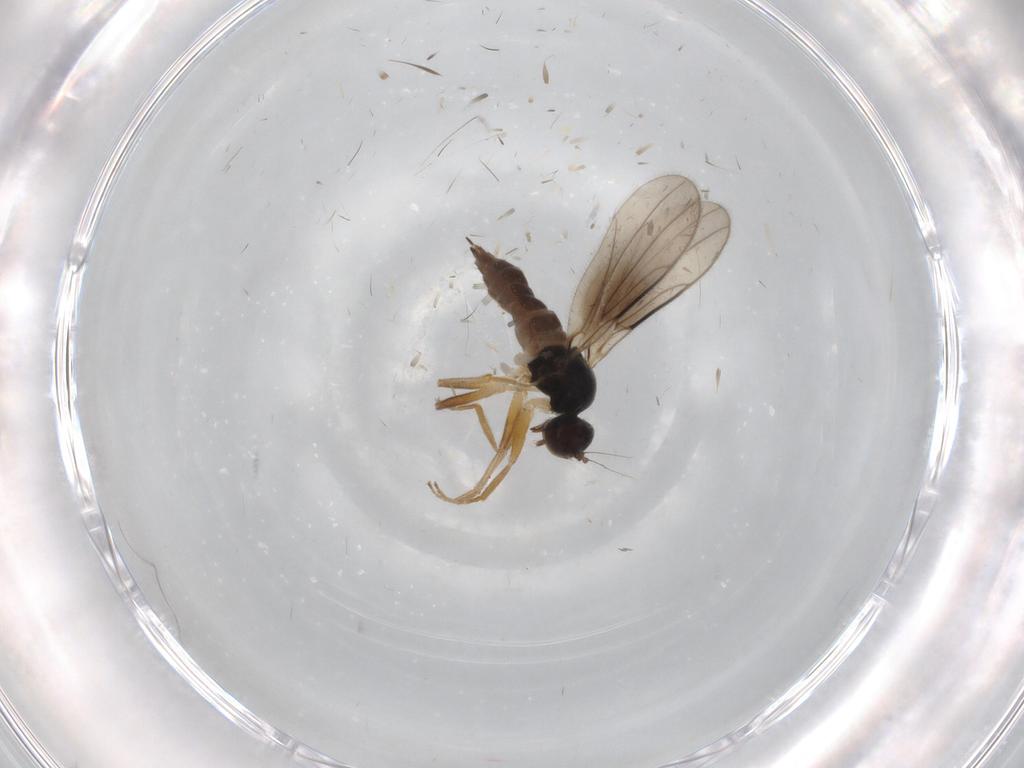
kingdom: Animalia
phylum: Arthropoda
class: Insecta
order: Diptera
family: Hybotidae
